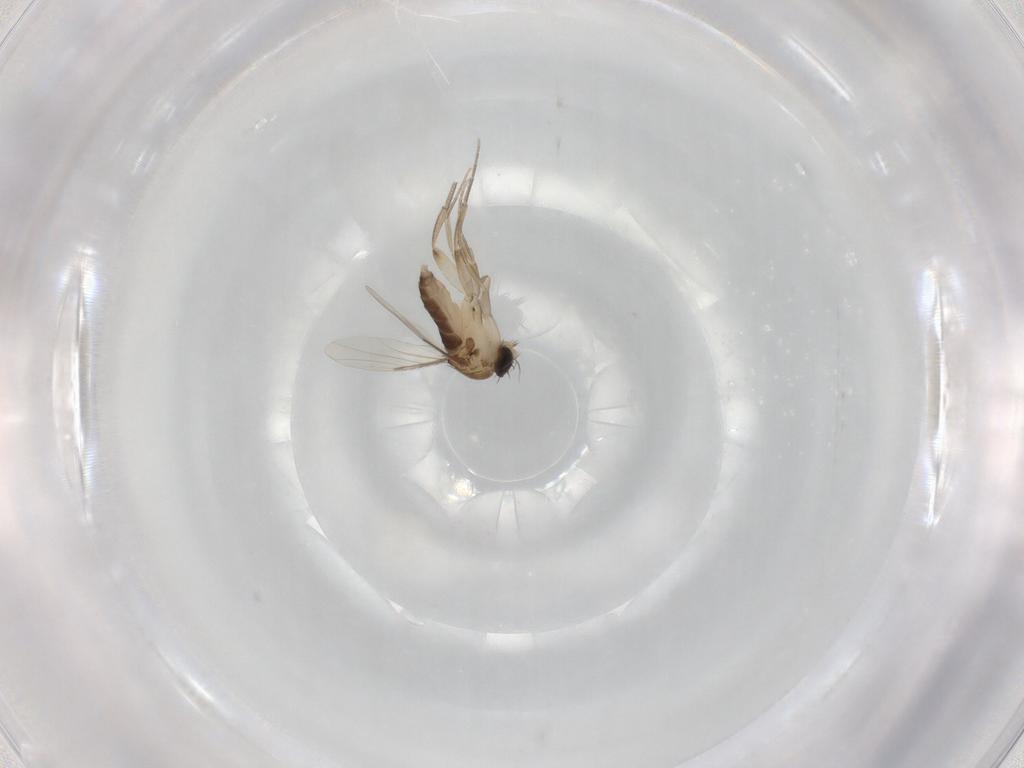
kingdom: Animalia
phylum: Arthropoda
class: Insecta
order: Diptera
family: Phoridae
